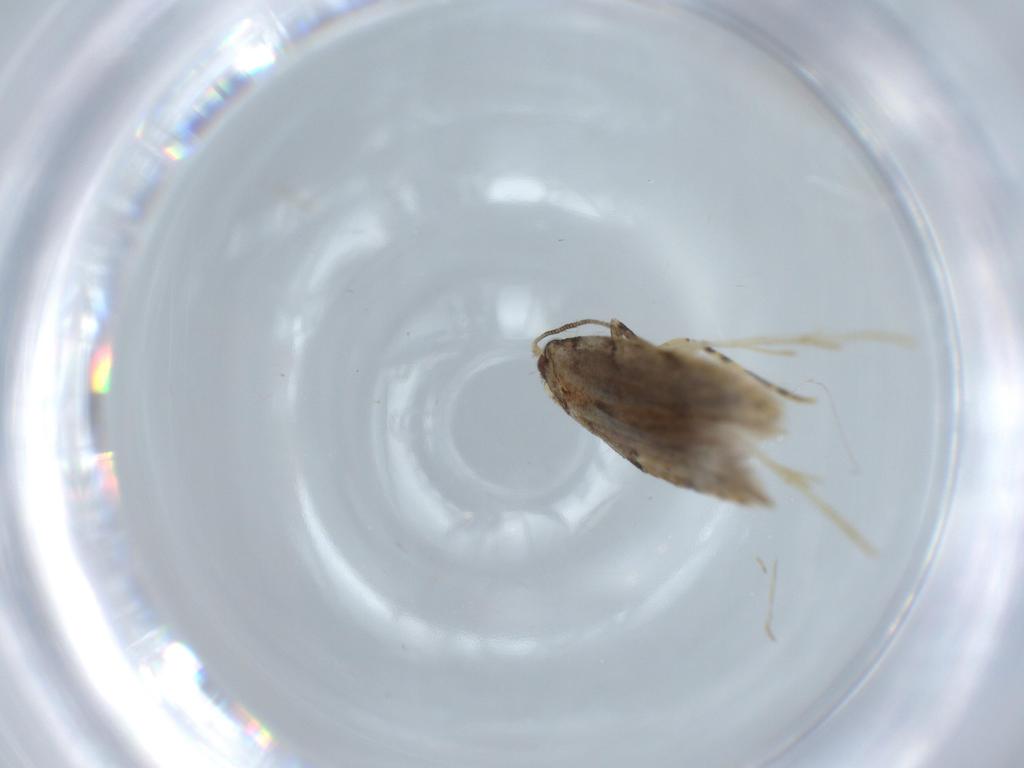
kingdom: Animalia
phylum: Arthropoda
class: Insecta
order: Lepidoptera
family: Tineidae
